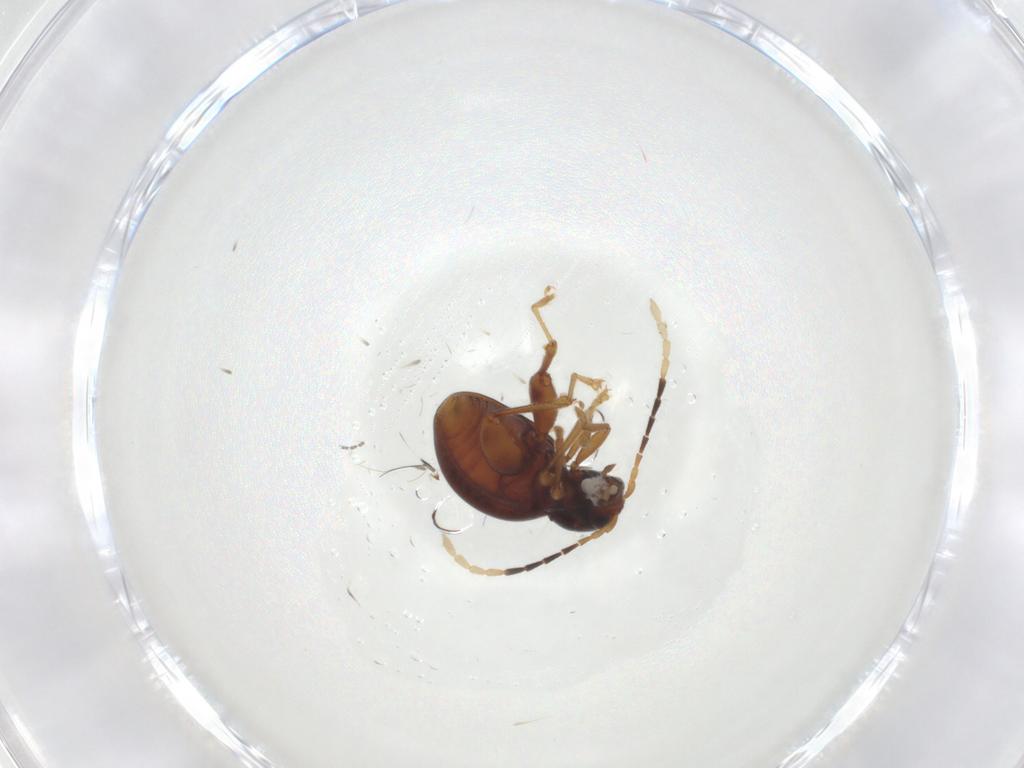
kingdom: Animalia
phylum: Arthropoda
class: Insecta
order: Coleoptera
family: Chrysomelidae
